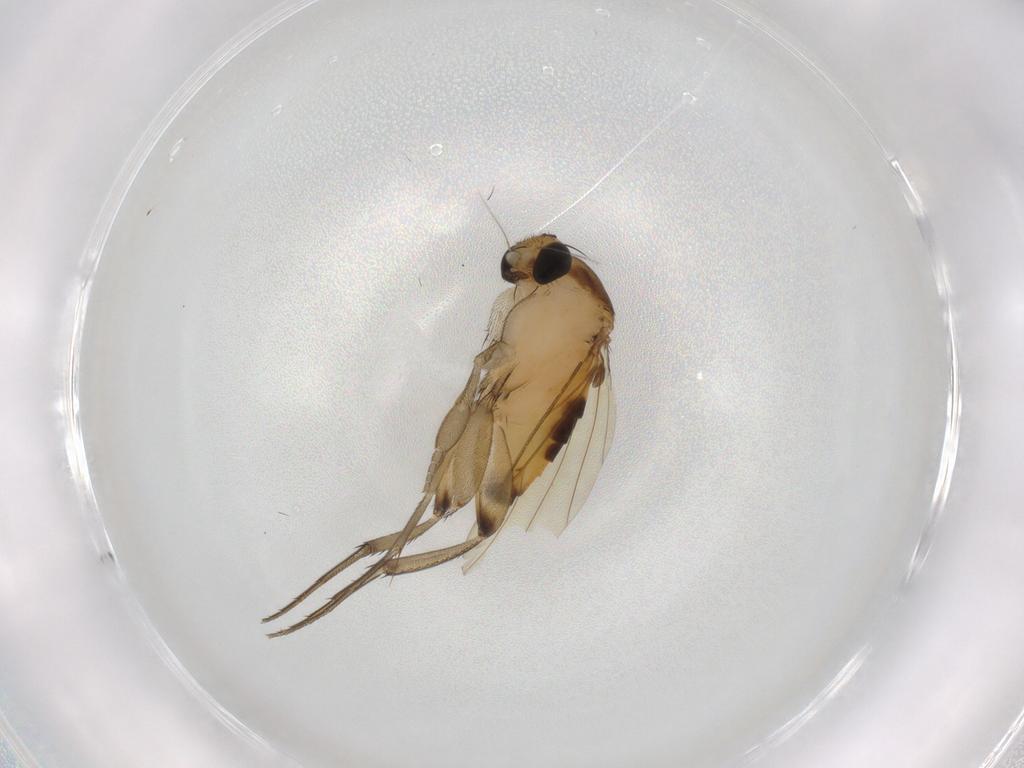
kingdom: Animalia
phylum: Arthropoda
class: Insecta
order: Diptera
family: Phoridae
